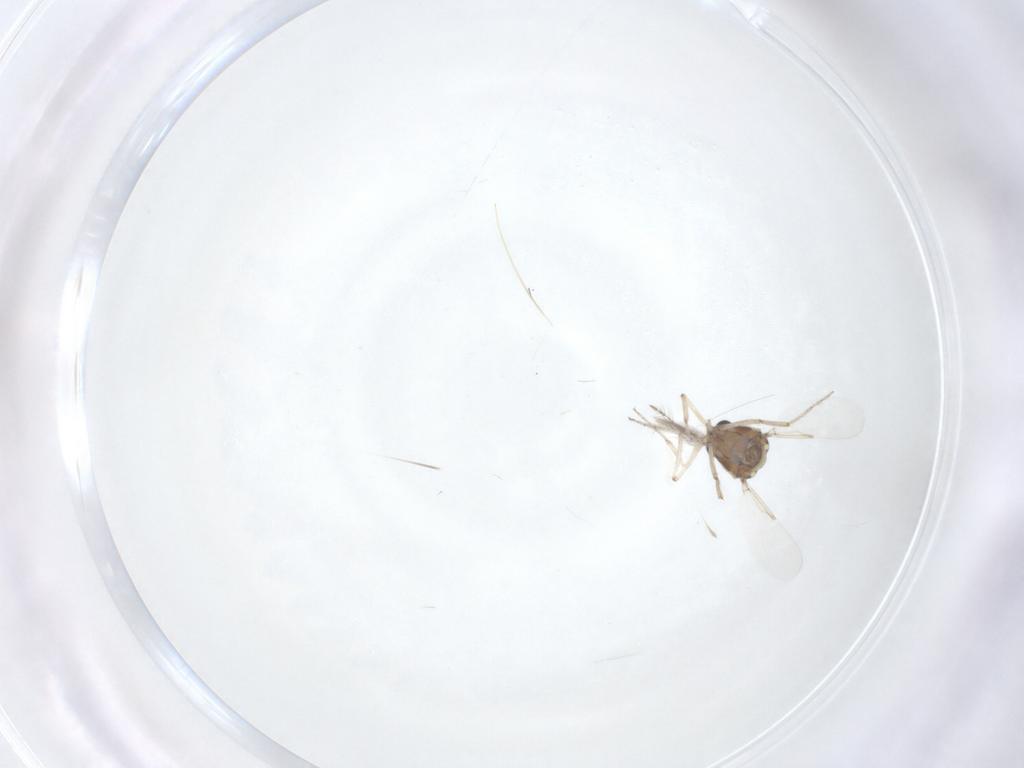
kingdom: Animalia
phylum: Arthropoda
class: Insecta
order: Diptera
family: Ceratopogonidae
